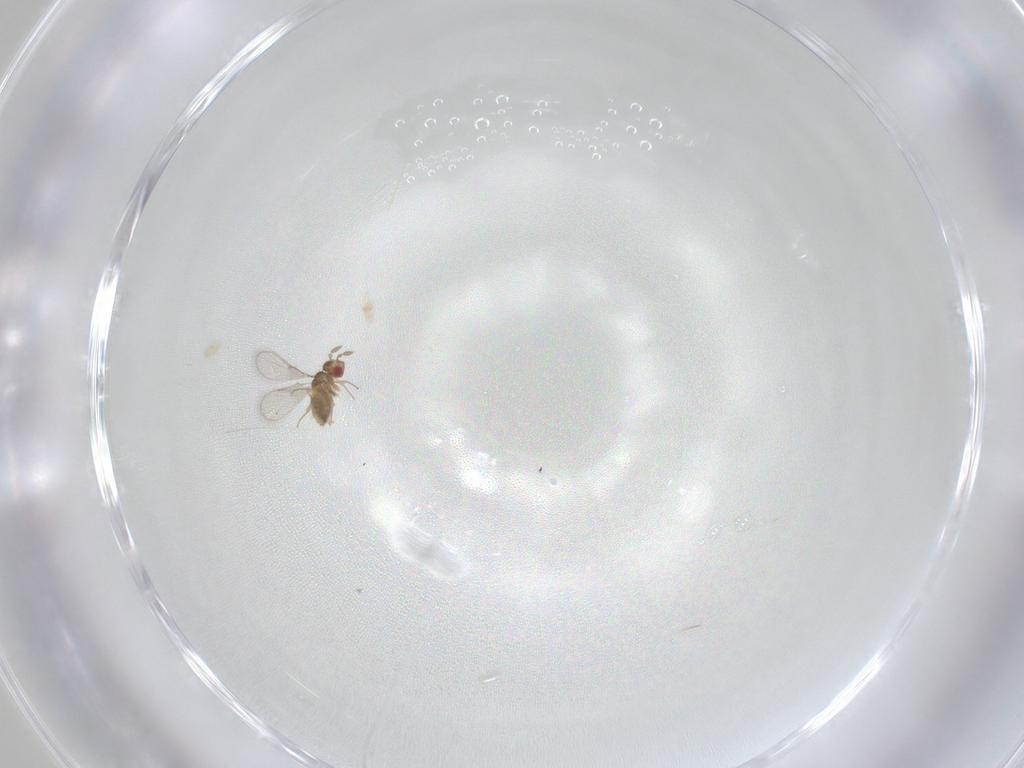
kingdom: Animalia
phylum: Arthropoda
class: Insecta
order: Hymenoptera
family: Trichogrammatidae
